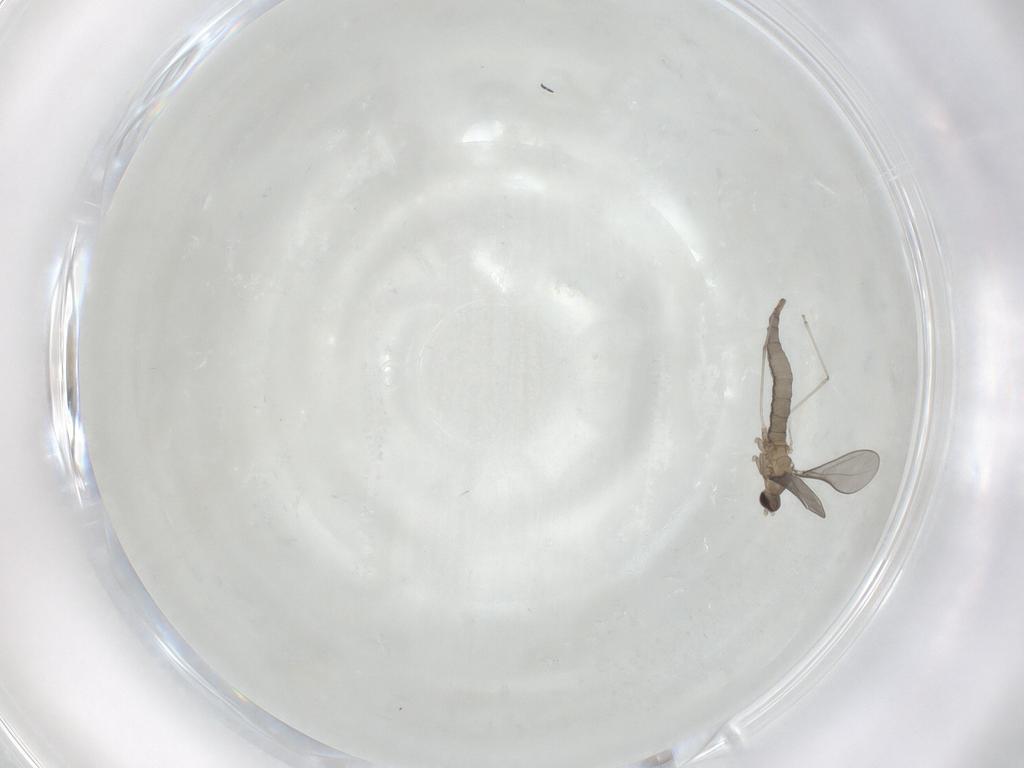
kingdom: Animalia
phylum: Arthropoda
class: Insecta
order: Diptera
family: Cecidomyiidae
